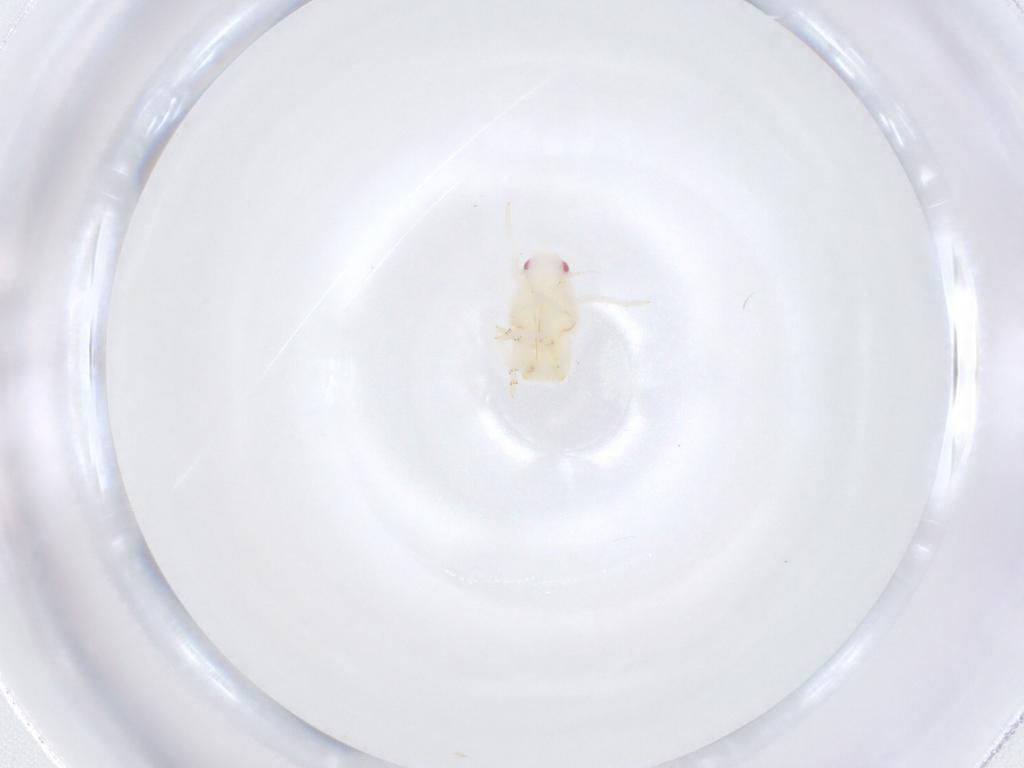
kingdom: Animalia
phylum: Arthropoda
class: Insecta
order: Hemiptera
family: Flatidae
